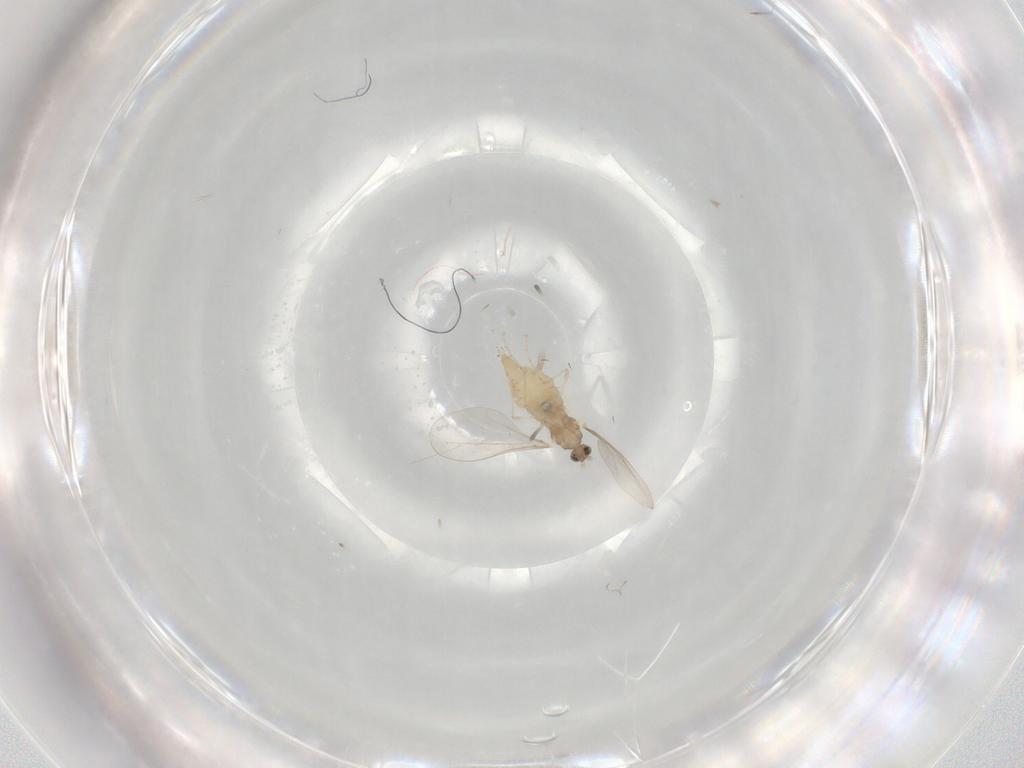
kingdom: Animalia
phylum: Arthropoda
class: Insecta
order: Diptera
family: Cecidomyiidae
